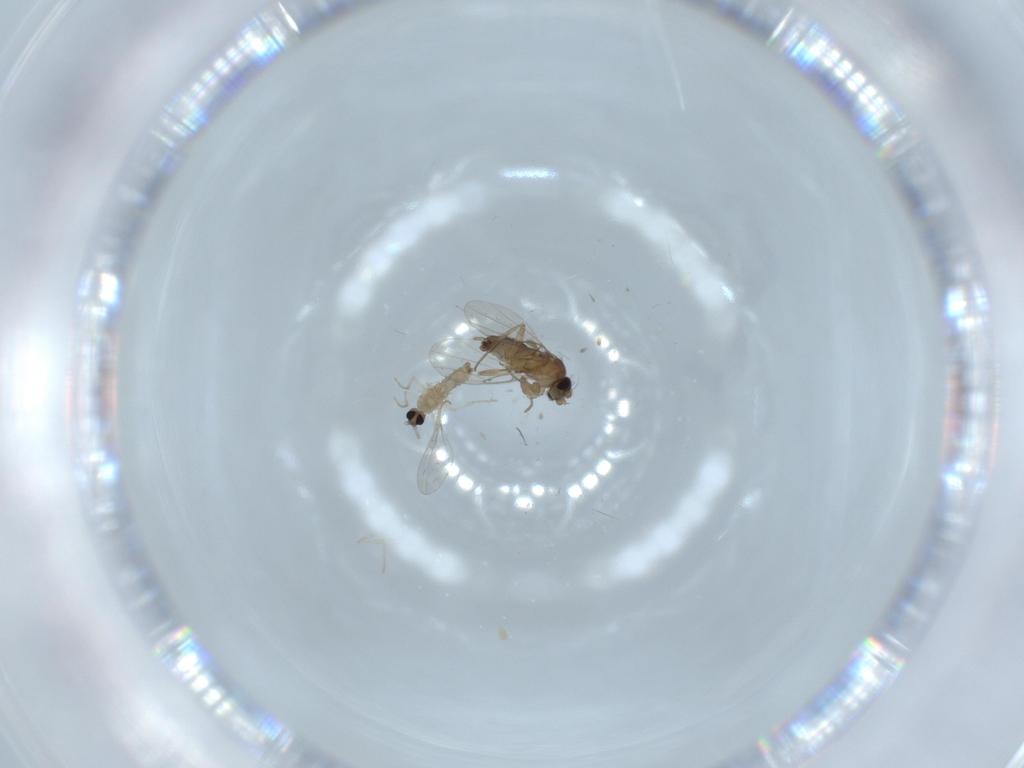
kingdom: Animalia
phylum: Arthropoda
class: Insecta
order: Diptera
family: Cecidomyiidae
